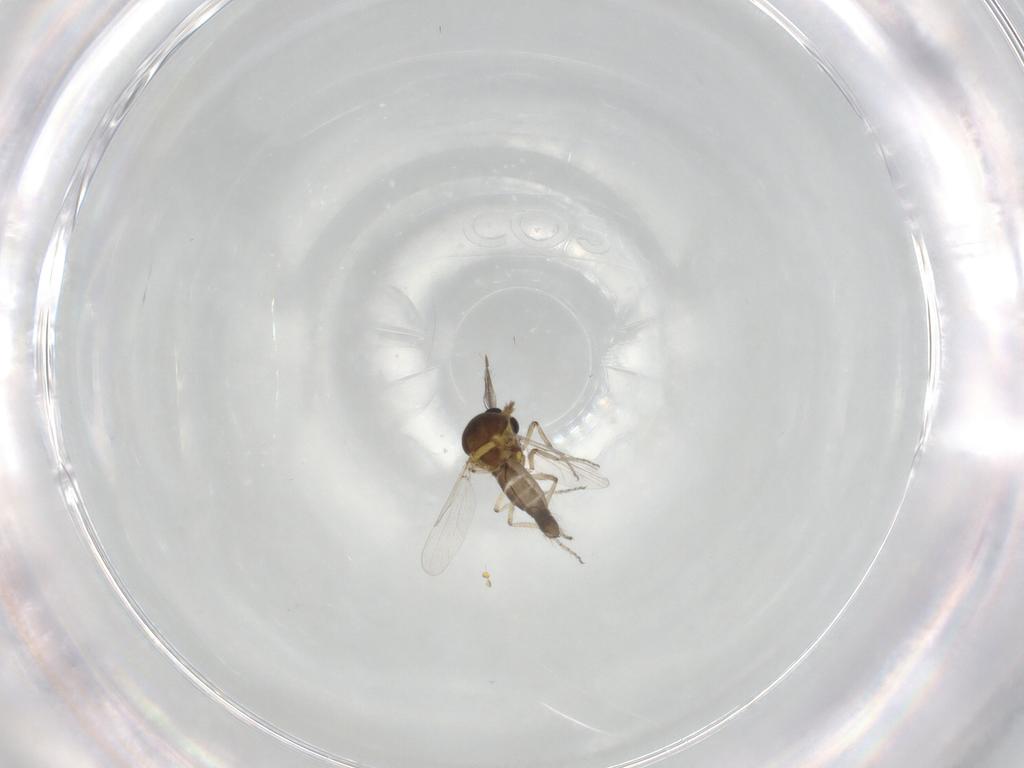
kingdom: Animalia
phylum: Arthropoda
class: Insecta
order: Diptera
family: Ceratopogonidae
